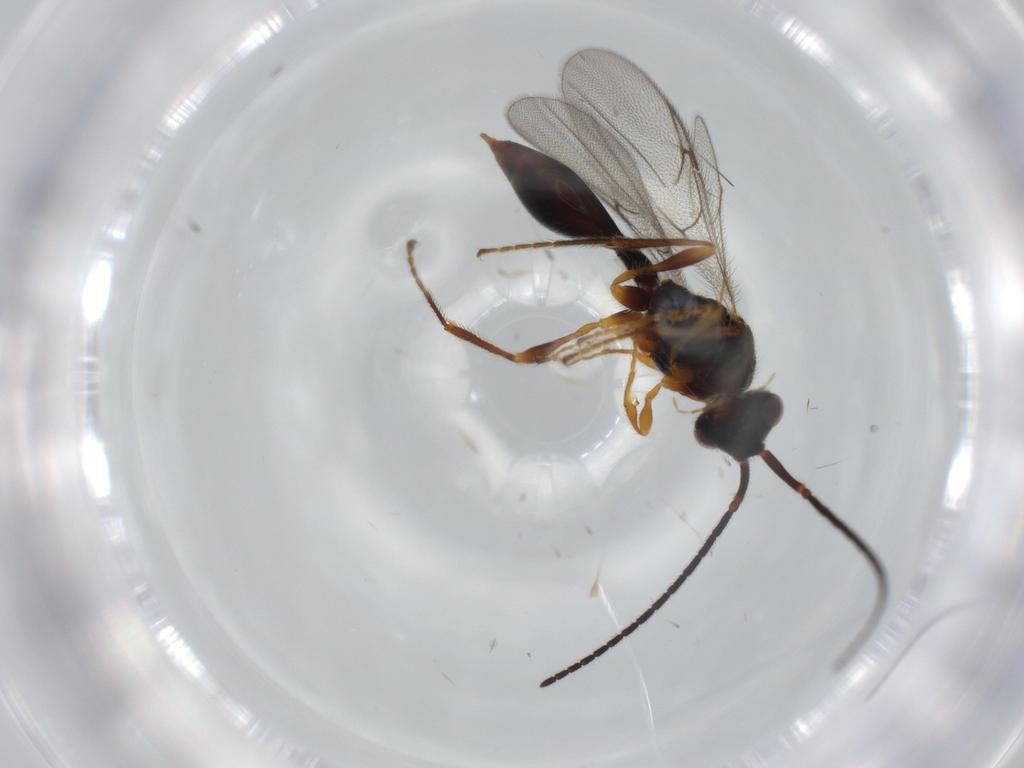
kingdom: Animalia
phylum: Arthropoda
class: Insecta
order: Hymenoptera
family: Diapriidae
